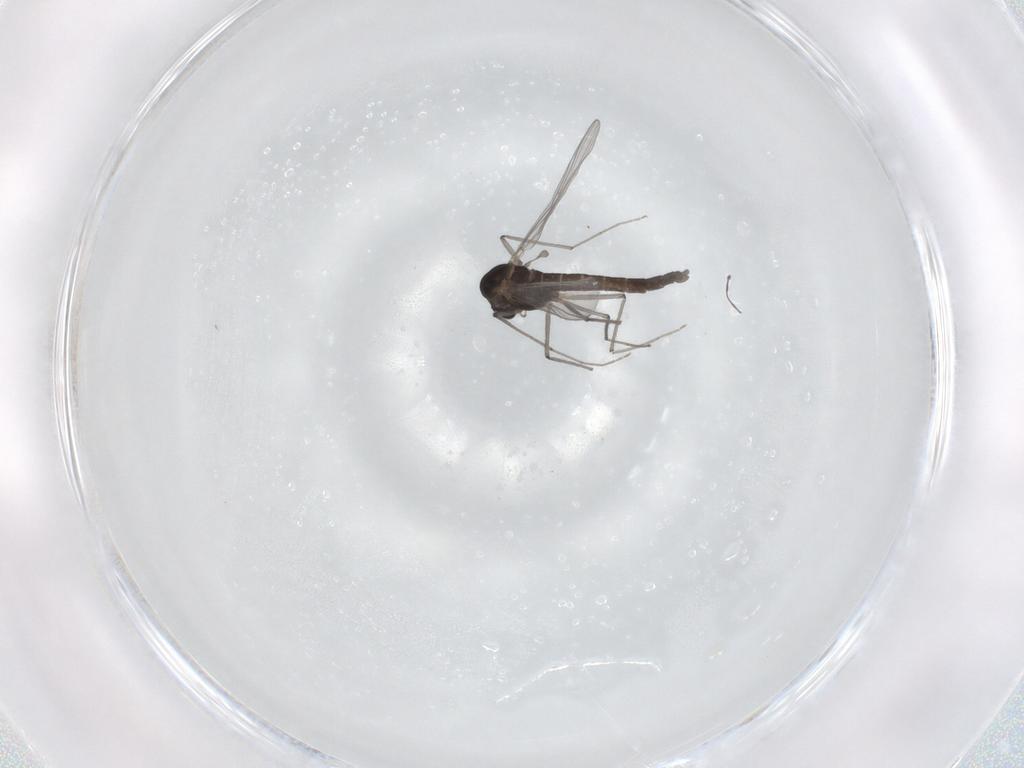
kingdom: Animalia
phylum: Arthropoda
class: Insecta
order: Diptera
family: Chironomidae
